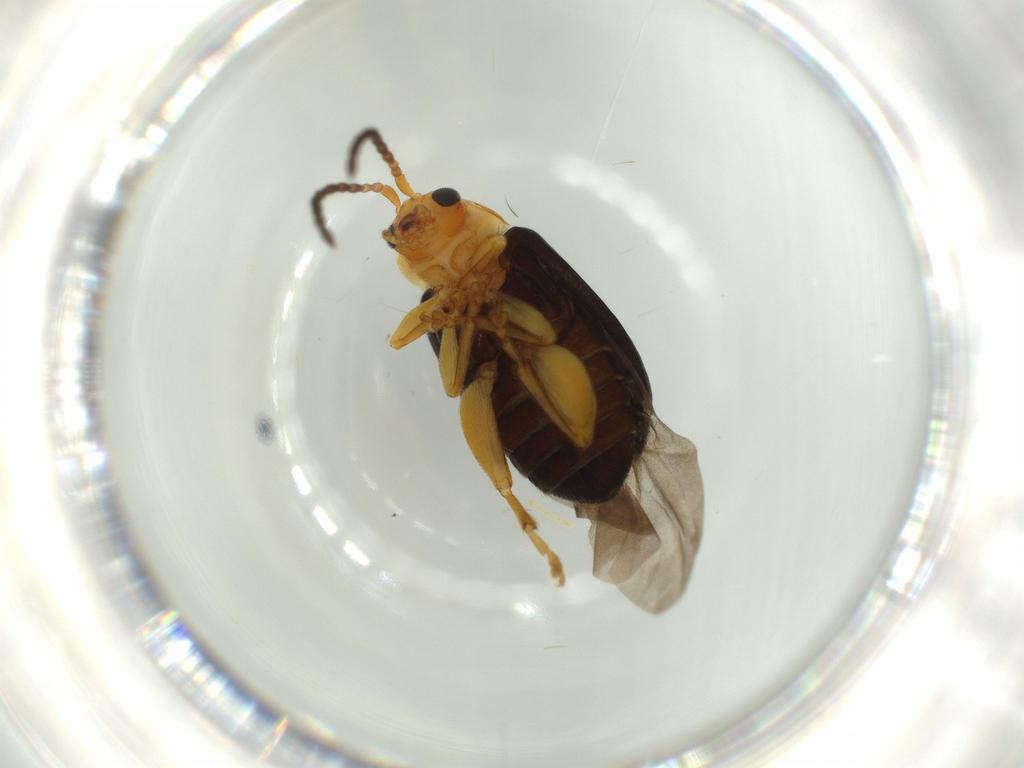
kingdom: Animalia
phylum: Arthropoda
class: Insecta
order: Coleoptera
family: Chrysomelidae
